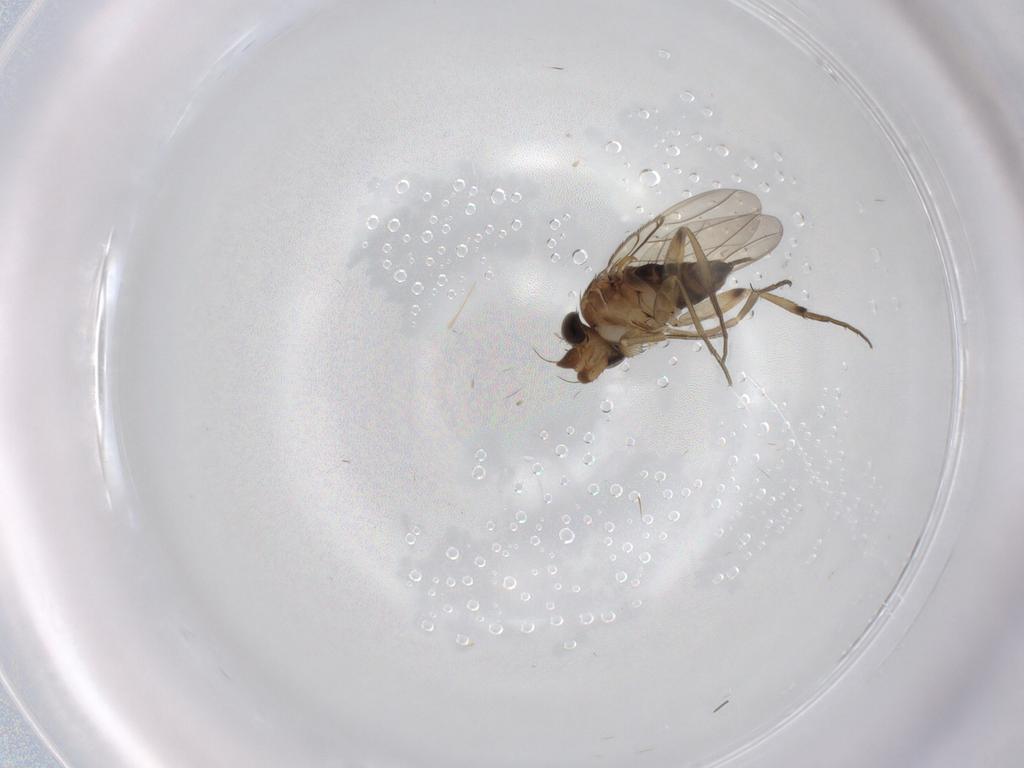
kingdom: Animalia
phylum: Arthropoda
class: Insecta
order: Diptera
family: Phoridae
